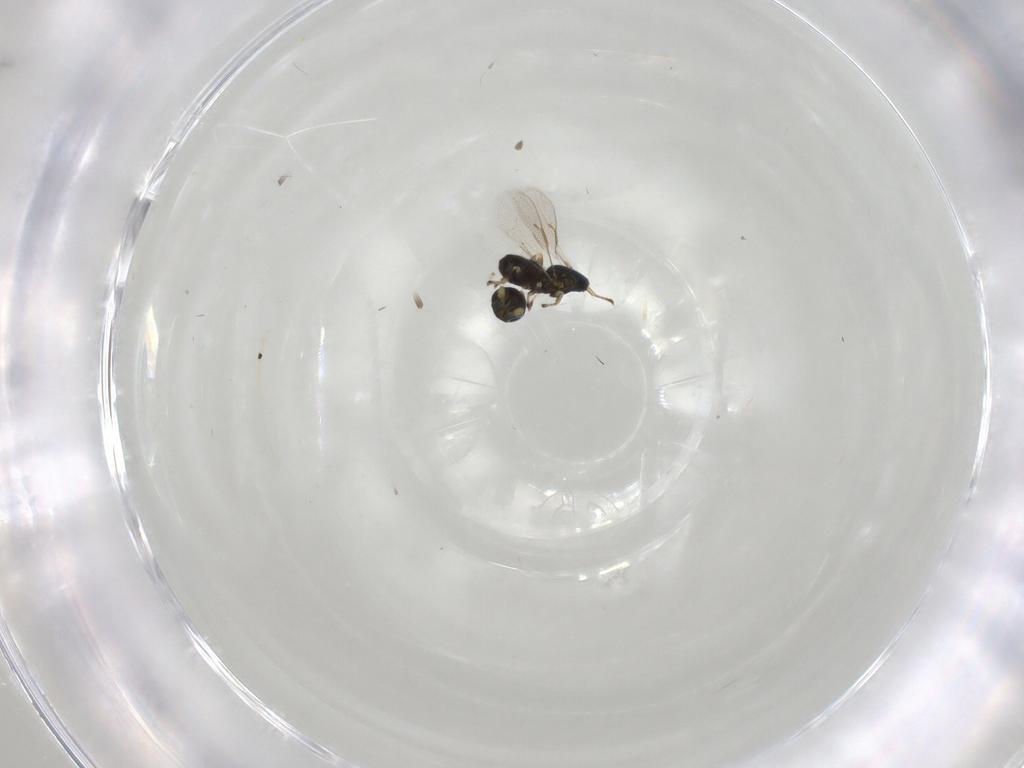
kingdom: Animalia
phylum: Arthropoda
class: Insecta
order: Hymenoptera
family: Eulophidae
